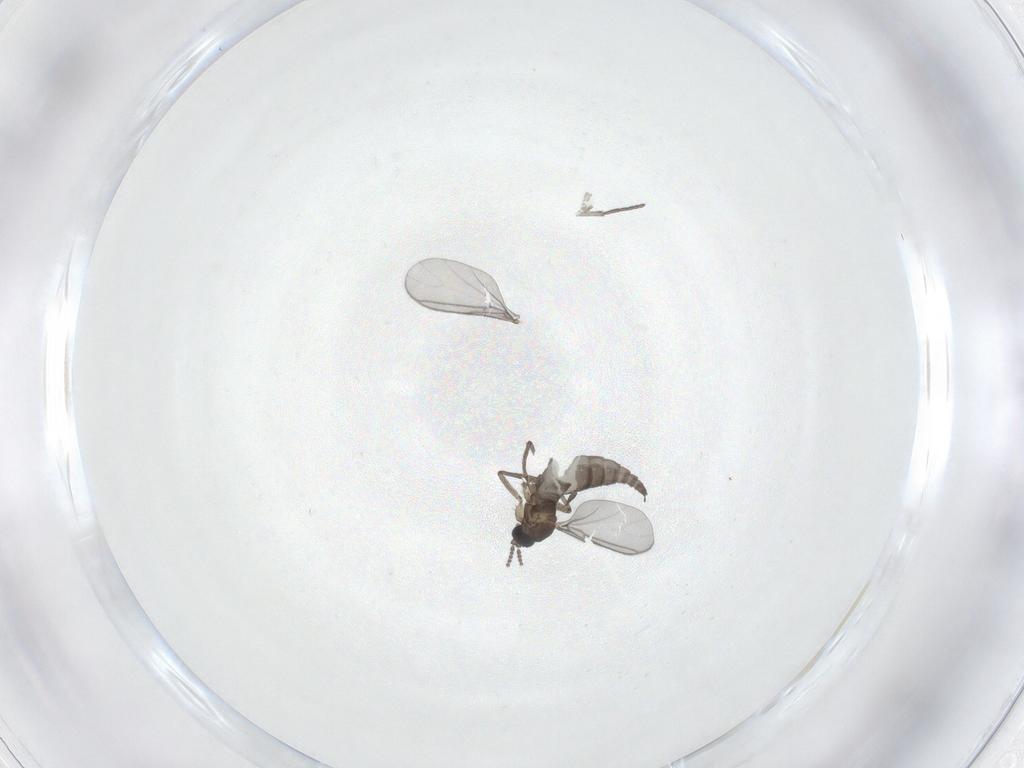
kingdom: Animalia
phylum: Arthropoda
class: Insecta
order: Diptera
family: Sciaridae
